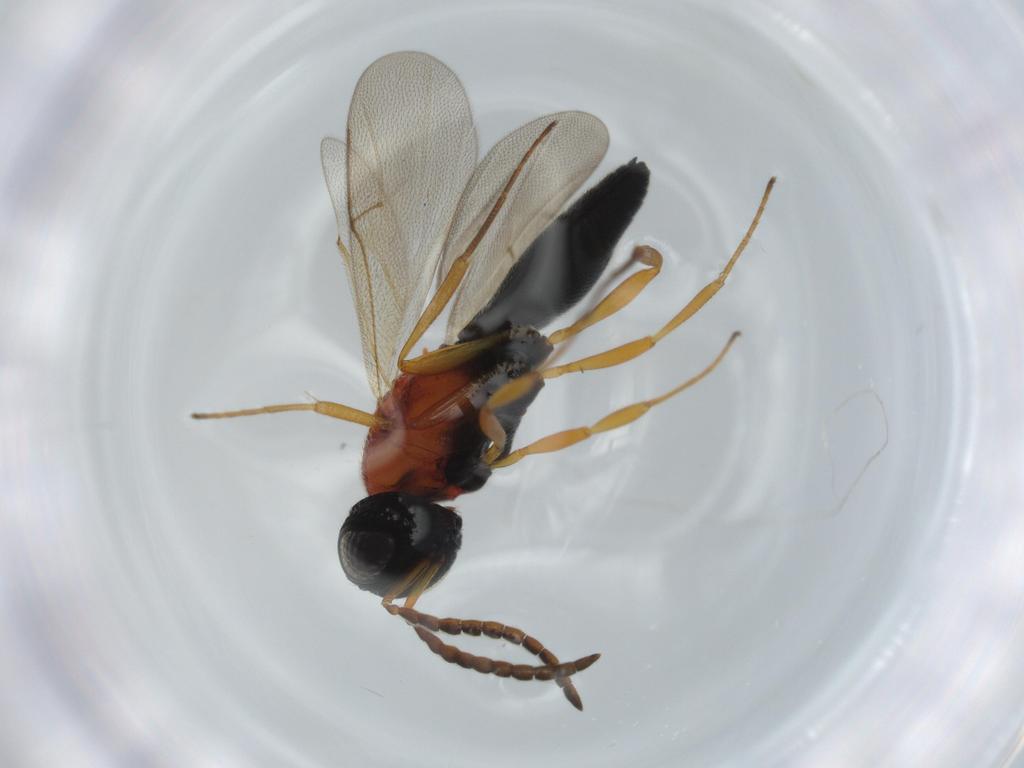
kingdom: Animalia
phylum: Arthropoda
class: Insecta
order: Hymenoptera
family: Scelionidae
